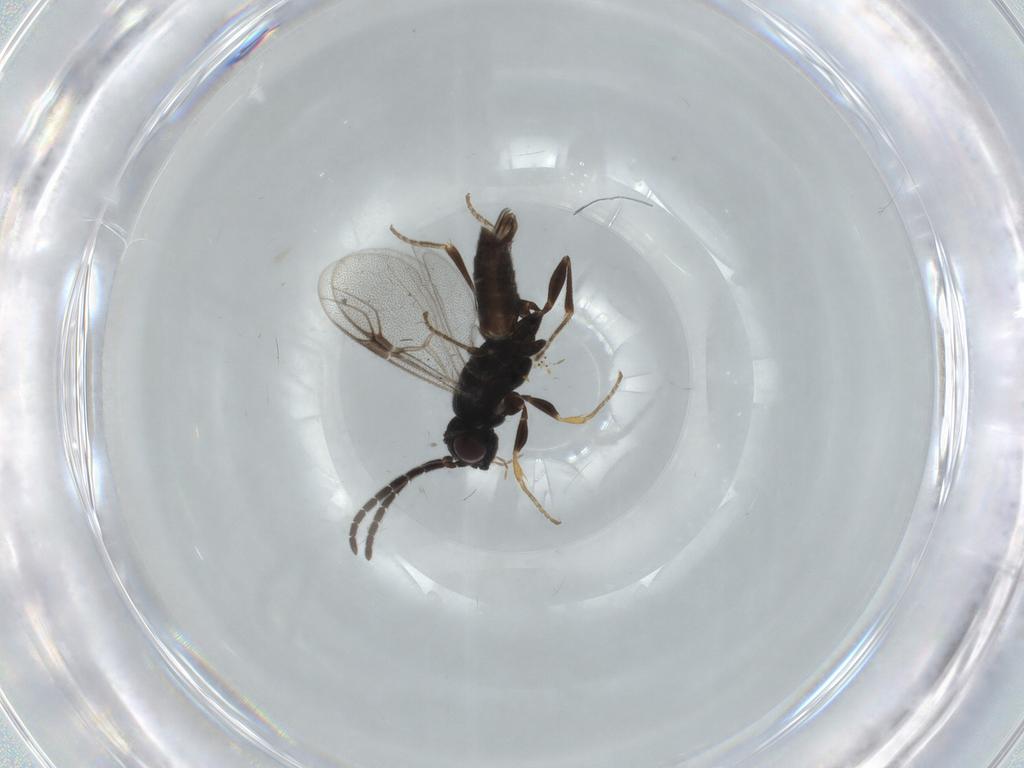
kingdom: Animalia
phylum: Arthropoda
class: Insecta
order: Hymenoptera
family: Dryinidae
